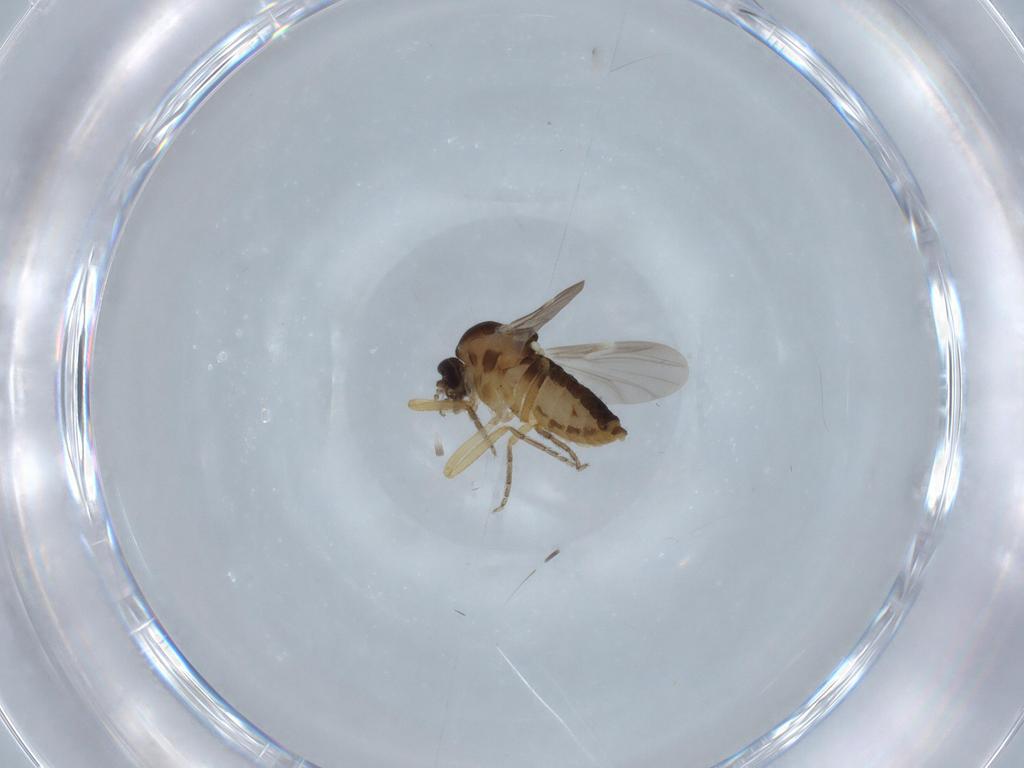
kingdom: Animalia
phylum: Arthropoda
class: Insecta
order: Diptera
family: Ceratopogonidae
